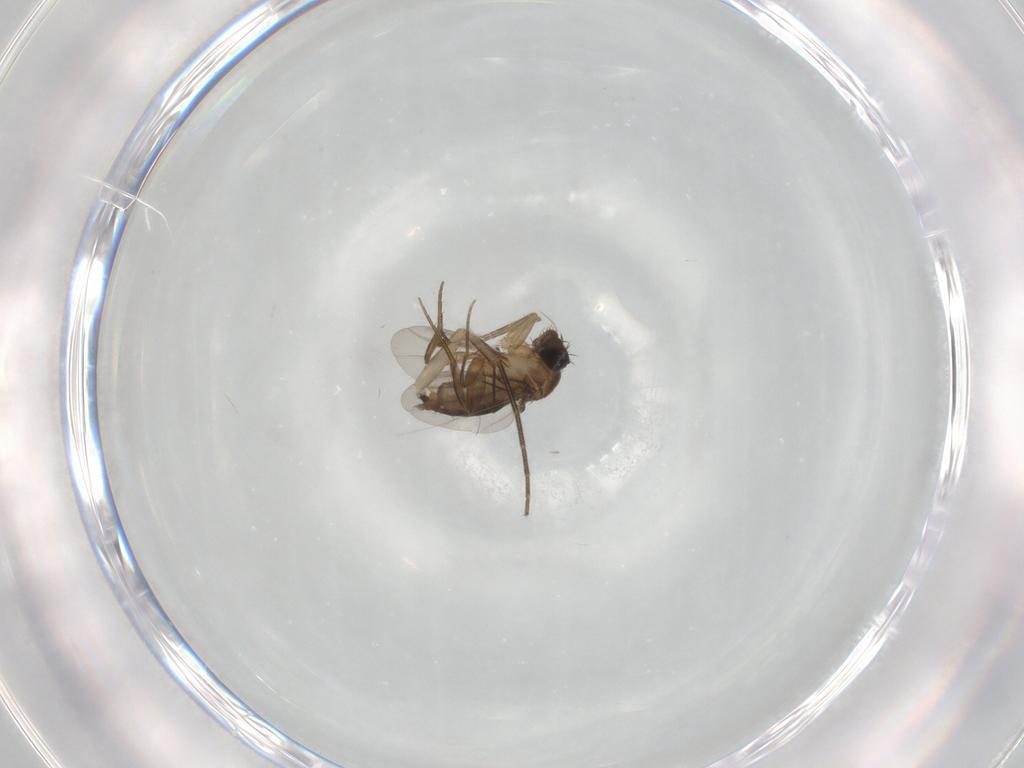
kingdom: Animalia
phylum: Arthropoda
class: Insecta
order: Diptera
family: Phoridae
